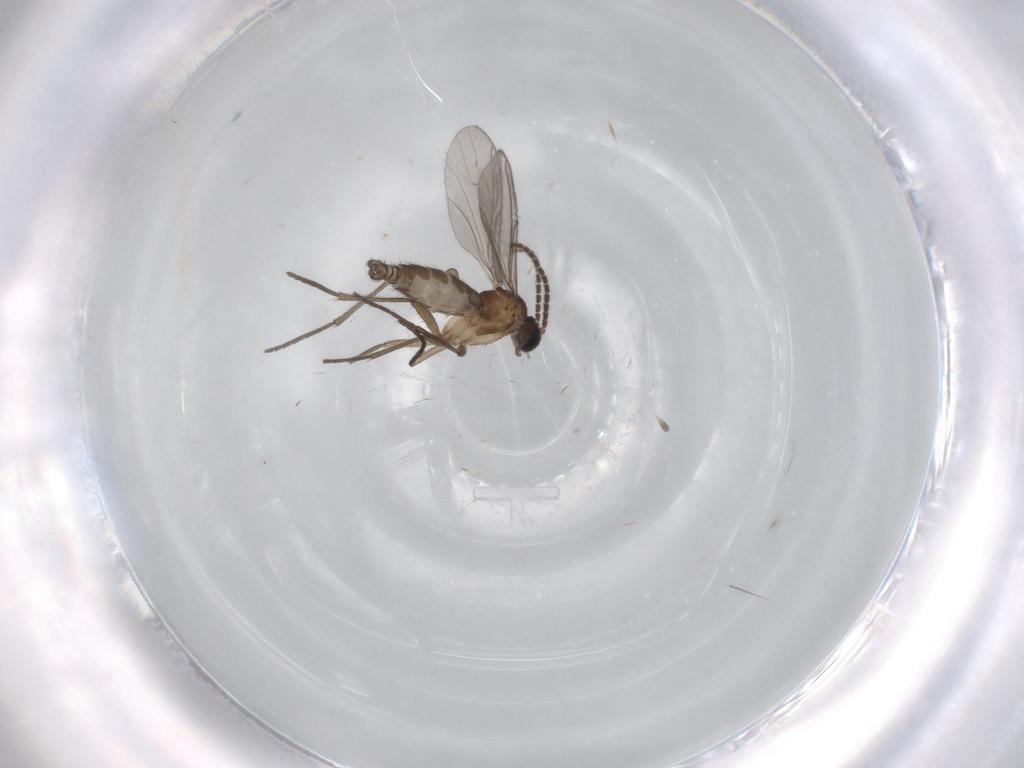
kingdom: Animalia
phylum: Arthropoda
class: Insecta
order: Diptera
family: Sciaridae
